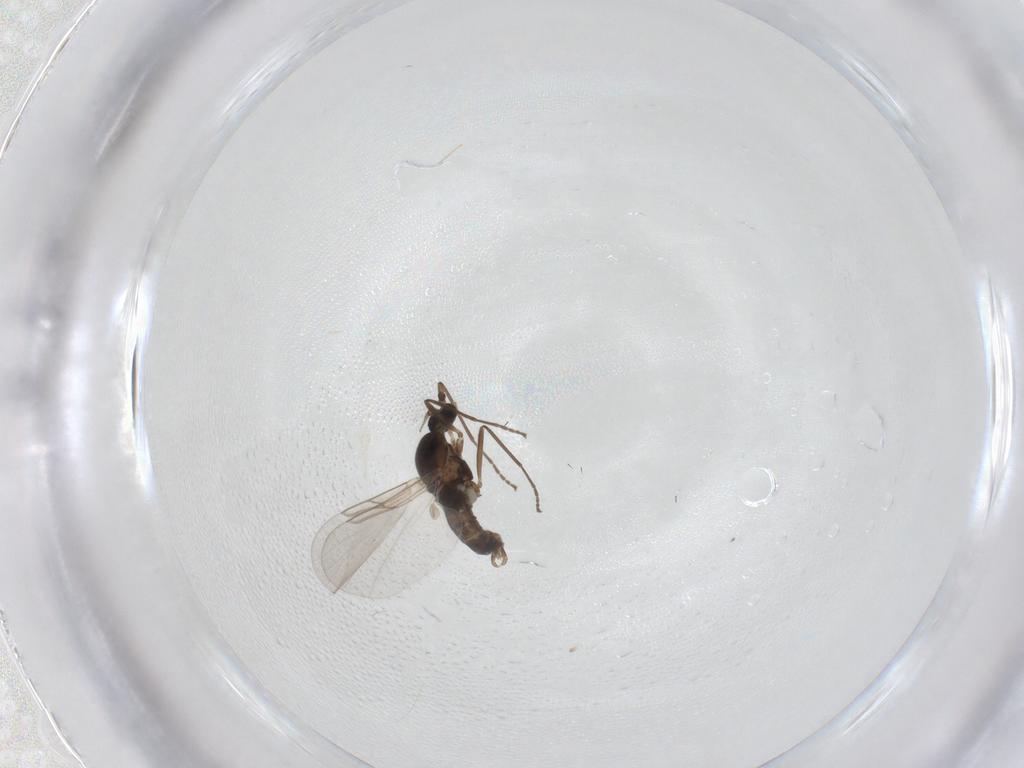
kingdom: Animalia
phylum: Arthropoda
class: Insecta
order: Diptera
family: Cecidomyiidae
